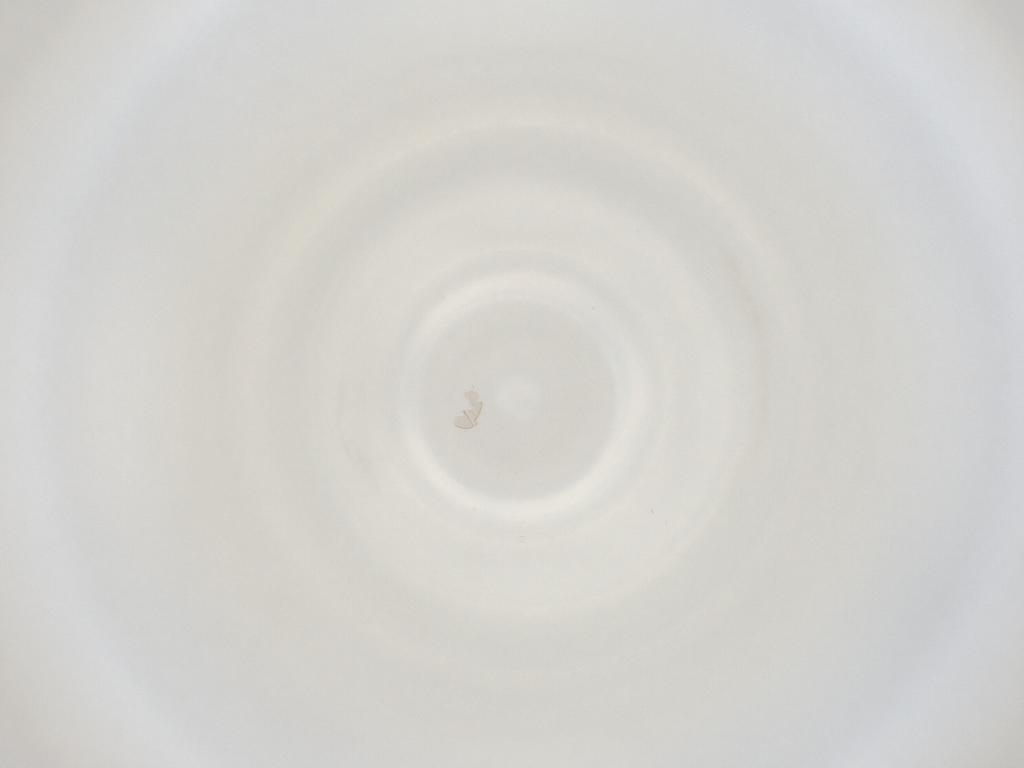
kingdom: Animalia
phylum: Arthropoda
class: Insecta
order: Diptera
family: Cecidomyiidae
